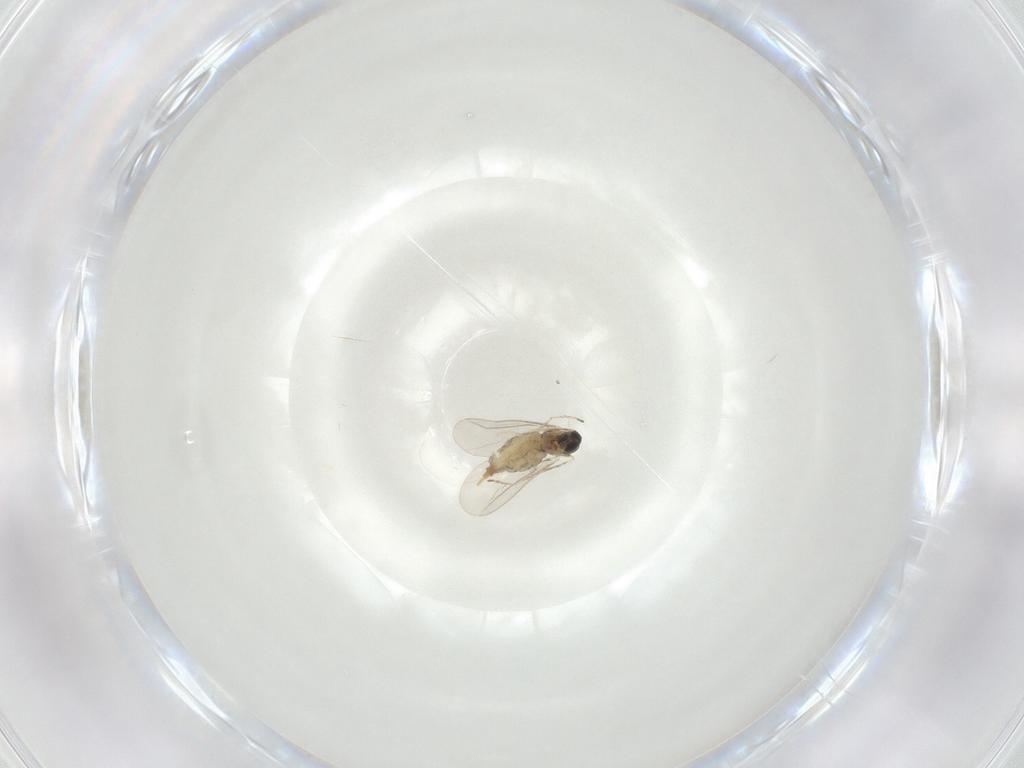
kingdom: Animalia
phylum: Arthropoda
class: Insecta
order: Diptera
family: Cecidomyiidae
